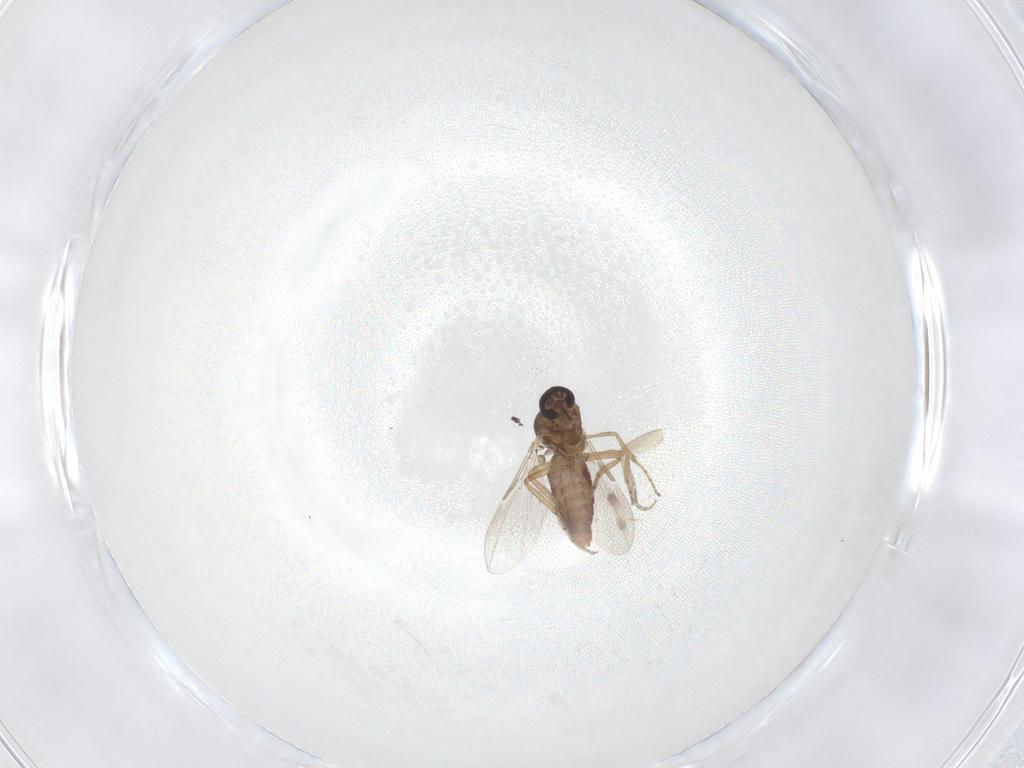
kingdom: Animalia
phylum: Arthropoda
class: Insecta
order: Diptera
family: Ceratopogonidae
